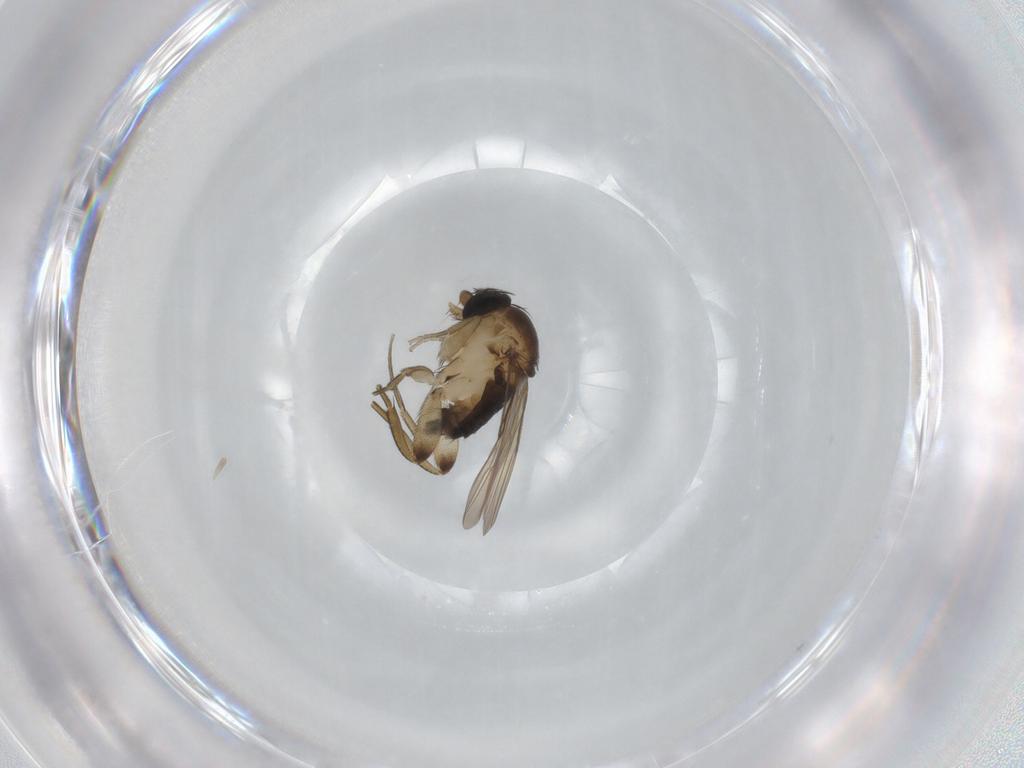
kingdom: Animalia
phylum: Arthropoda
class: Insecta
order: Diptera
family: Phoridae
